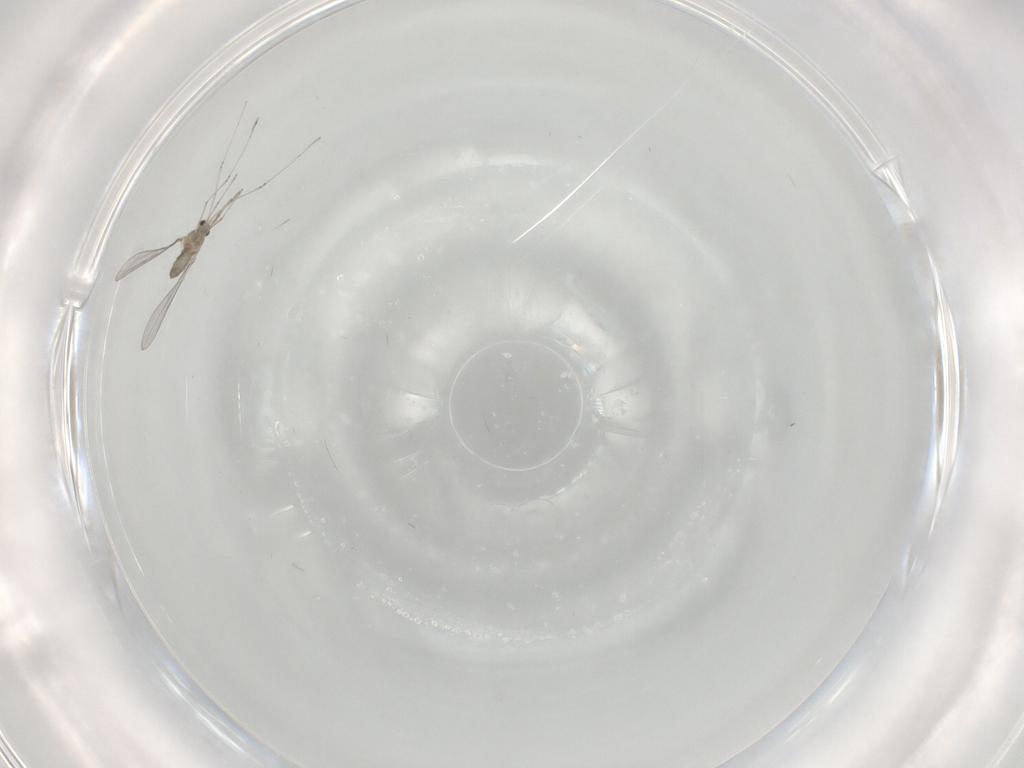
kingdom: Animalia
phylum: Arthropoda
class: Insecta
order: Diptera
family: Cecidomyiidae
